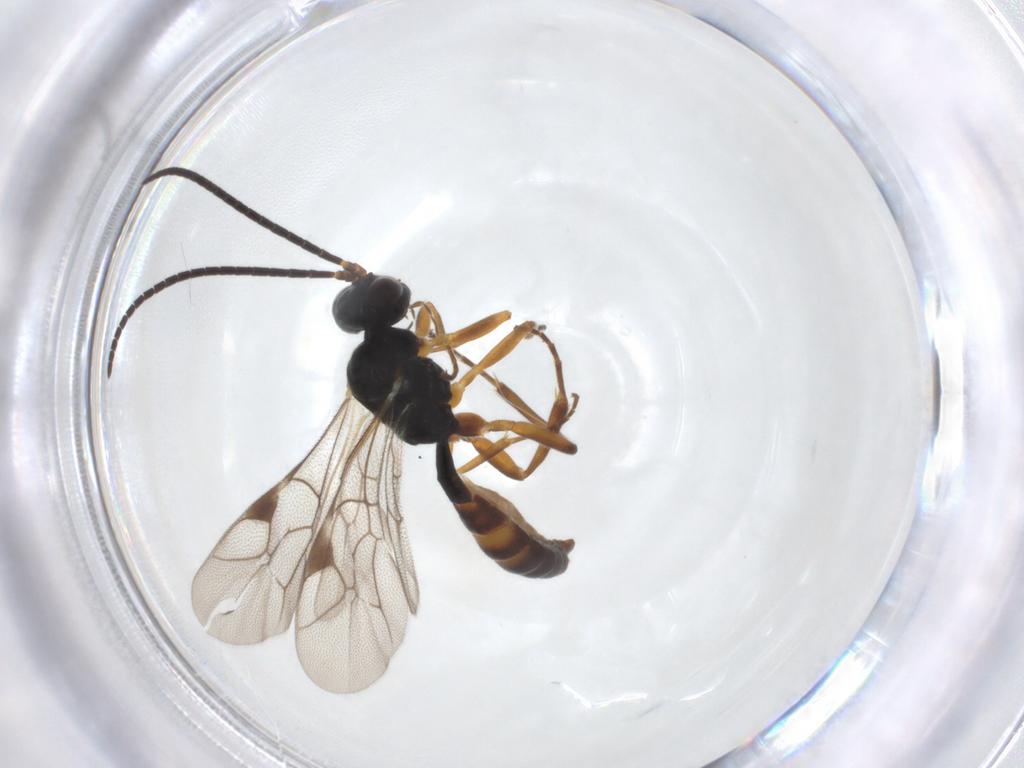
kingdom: Animalia
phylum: Arthropoda
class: Insecta
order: Hymenoptera
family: Ichneumonidae
